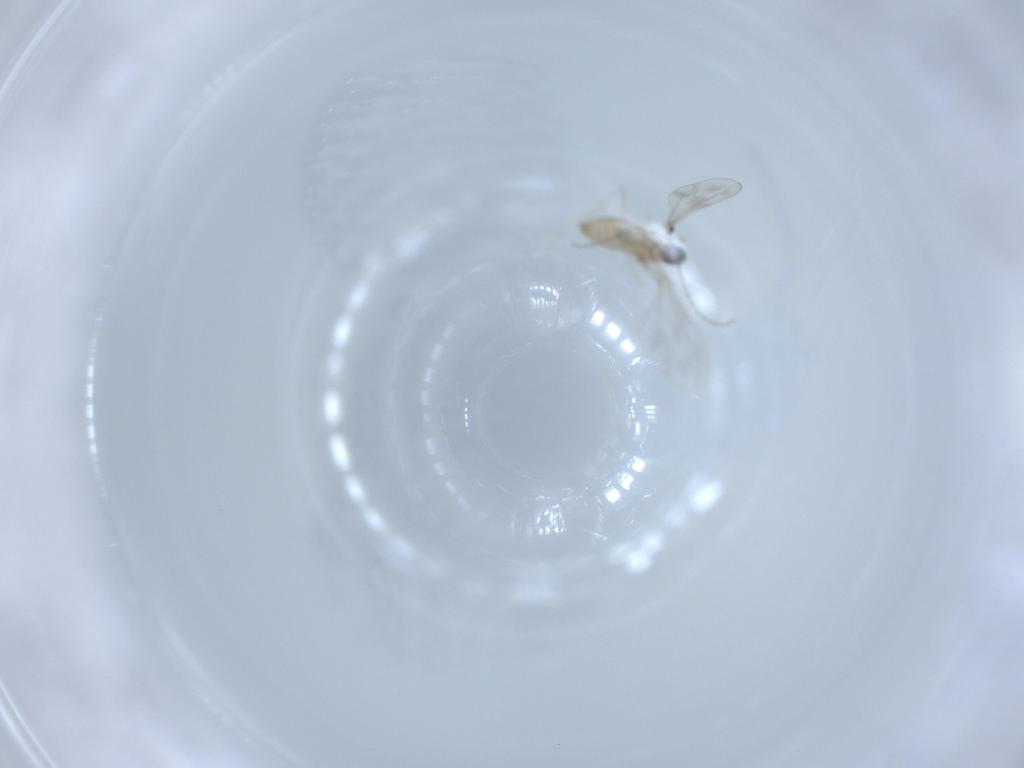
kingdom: Animalia
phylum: Arthropoda
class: Insecta
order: Diptera
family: Cecidomyiidae
